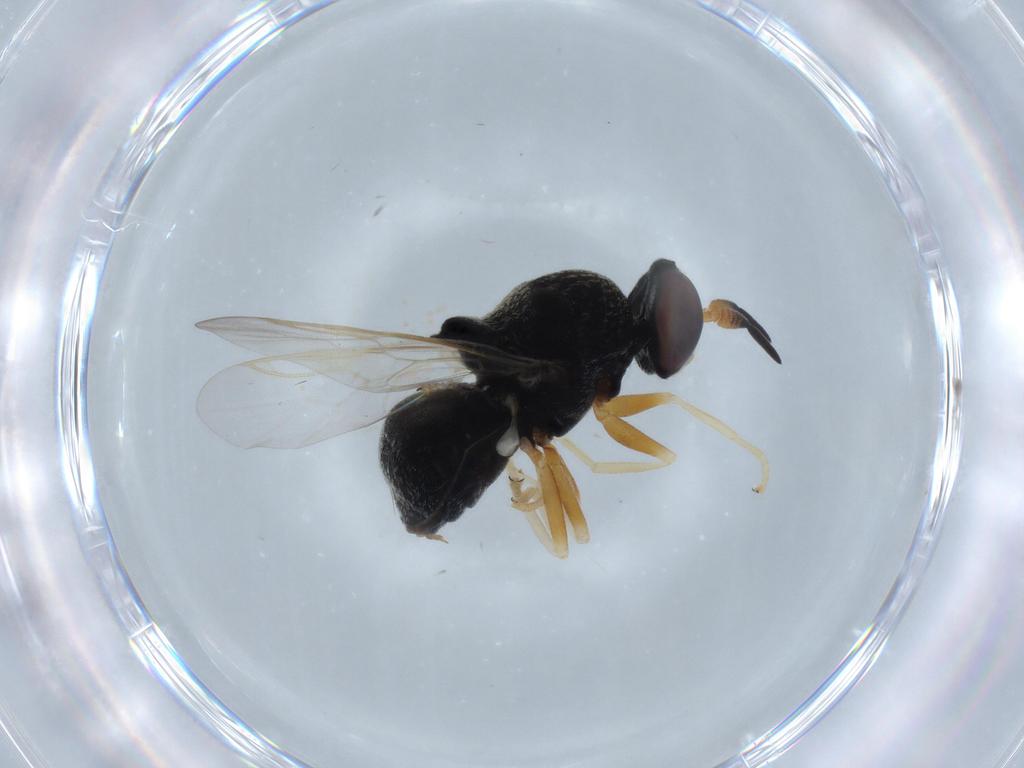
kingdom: Animalia
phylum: Arthropoda
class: Insecta
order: Diptera
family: Stratiomyidae
